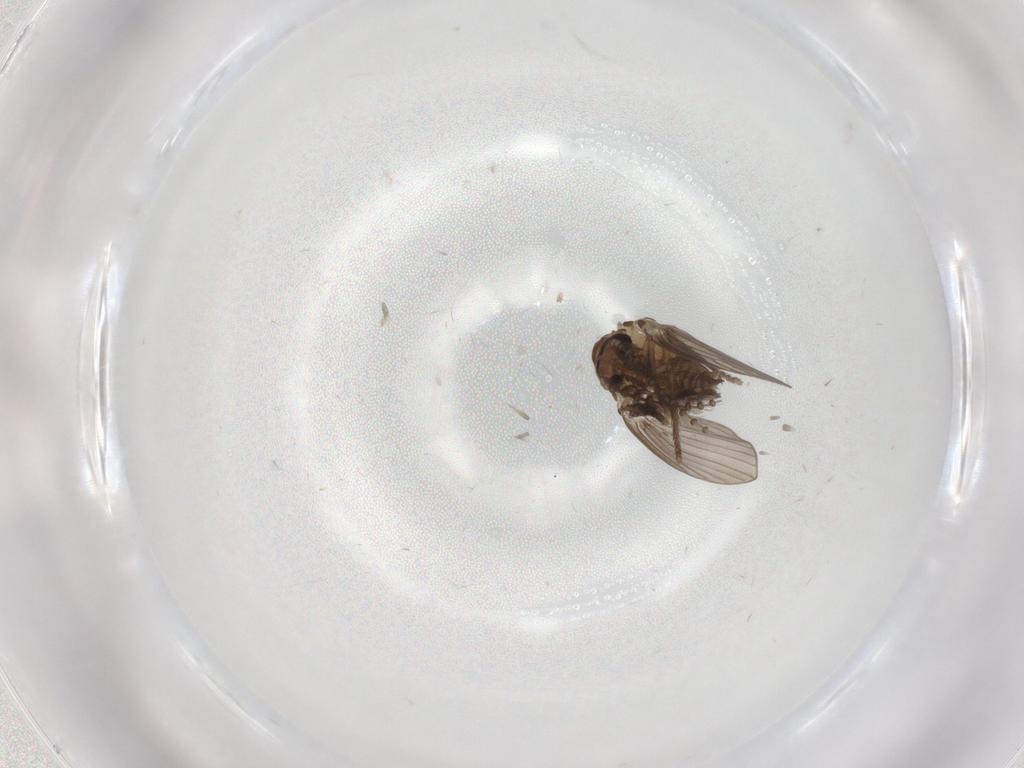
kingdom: Animalia
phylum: Arthropoda
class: Insecta
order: Diptera
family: Psychodidae
